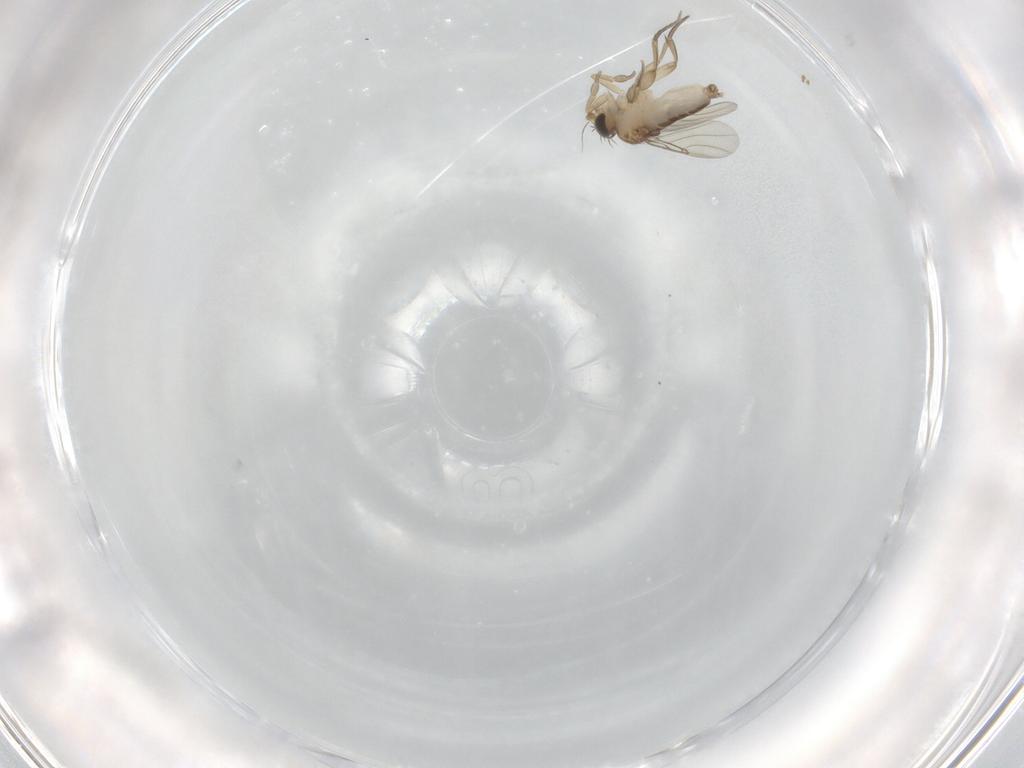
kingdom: Animalia
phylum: Arthropoda
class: Insecta
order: Diptera
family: Phoridae
